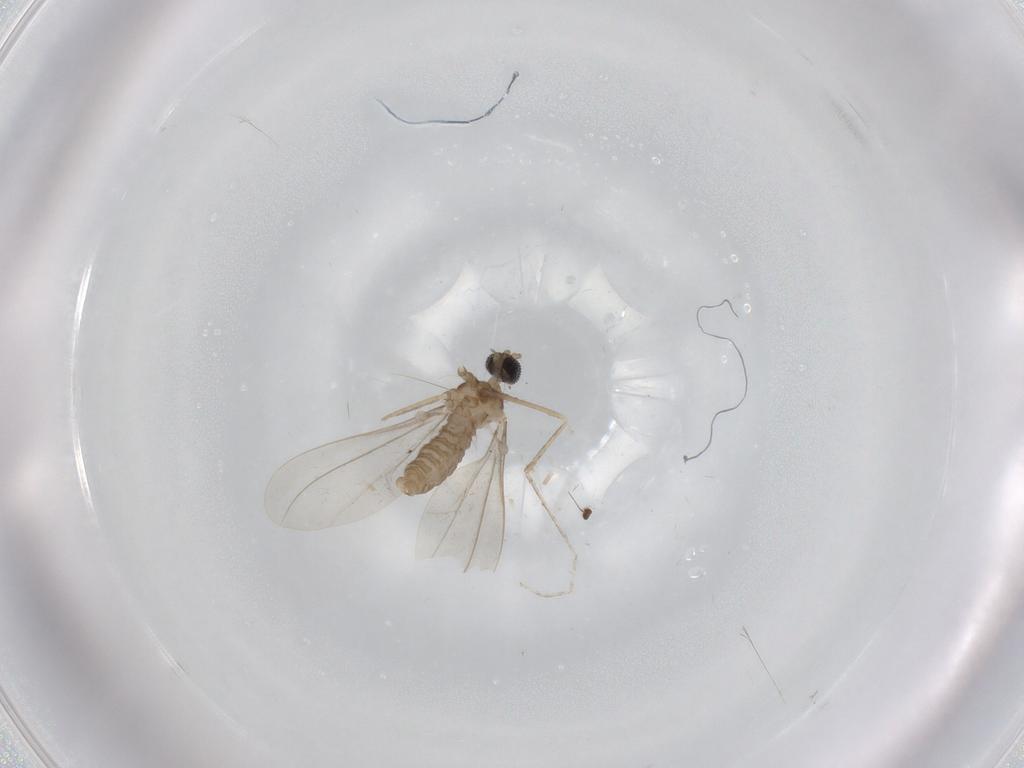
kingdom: Animalia
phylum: Arthropoda
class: Insecta
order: Diptera
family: Cecidomyiidae
